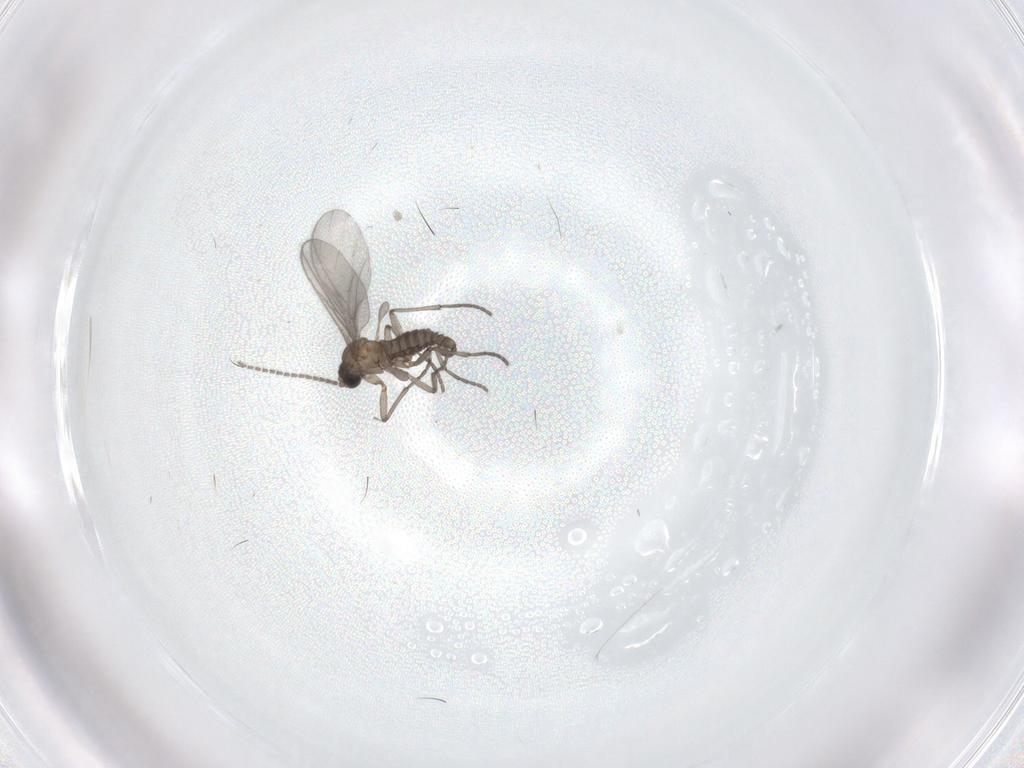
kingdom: Animalia
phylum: Arthropoda
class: Insecta
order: Diptera
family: Sciaridae
